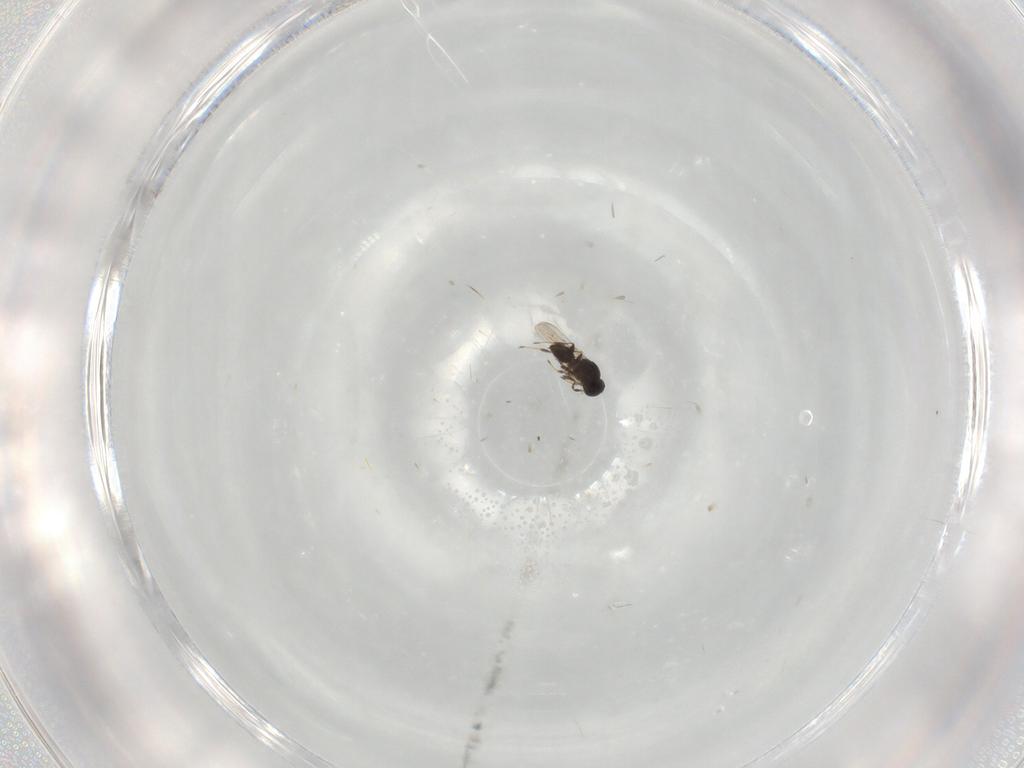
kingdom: Animalia
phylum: Arthropoda
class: Insecta
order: Hymenoptera
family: Platygastridae
